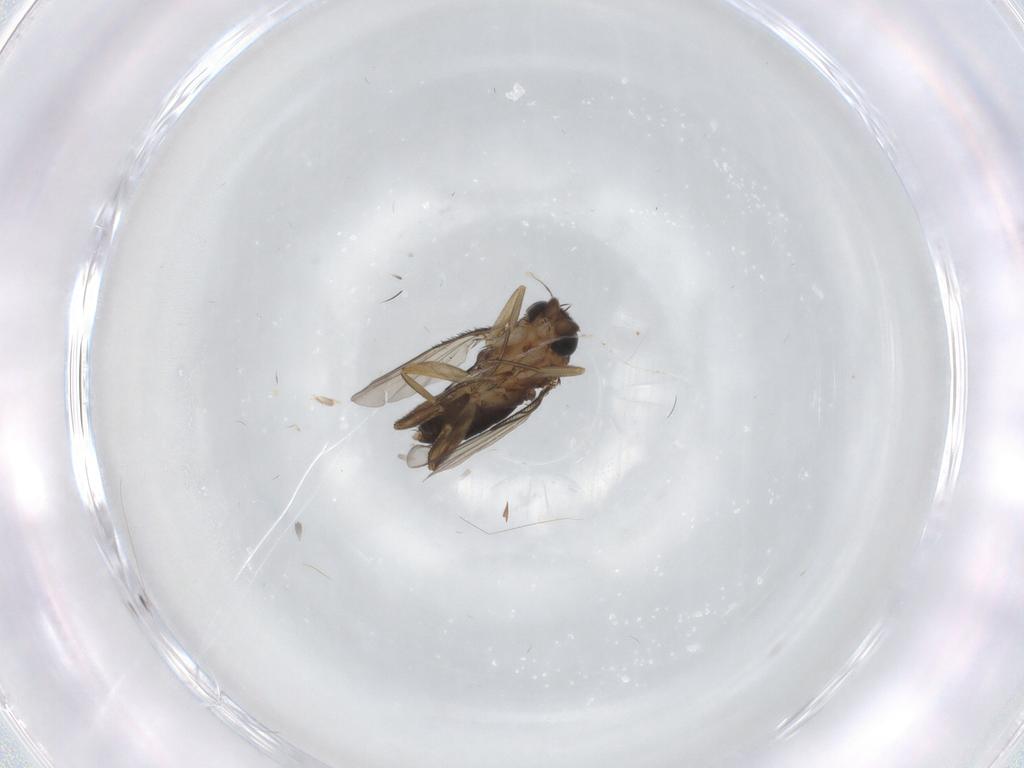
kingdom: Animalia
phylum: Arthropoda
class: Insecta
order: Diptera
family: Phoridae
